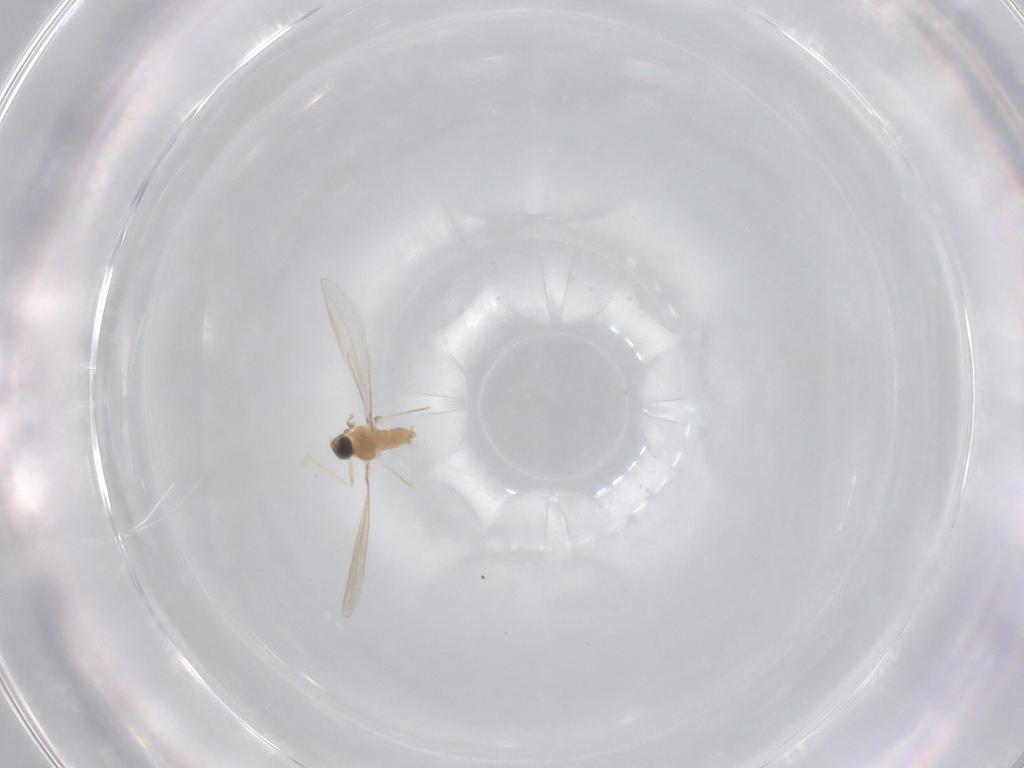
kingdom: Animalia
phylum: Arthropoda
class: Insecta
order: Diptera
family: Cecidomyiidae
